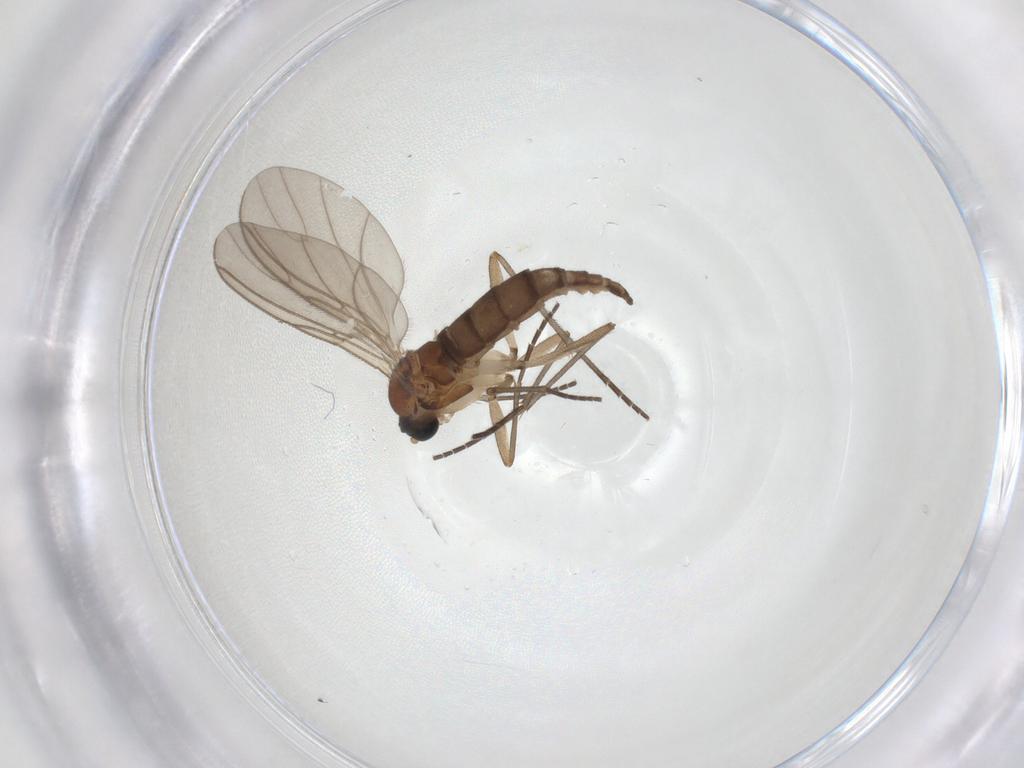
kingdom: Animalia
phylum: Arthropoda
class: Insecta
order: Diptera
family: Sciaridae
